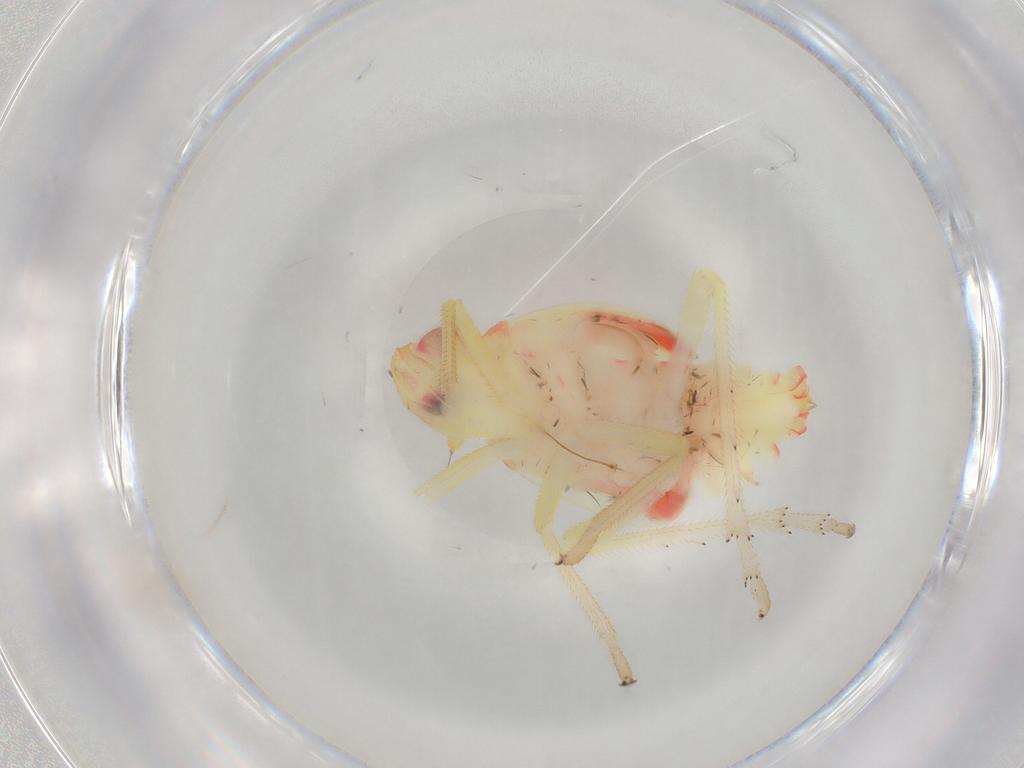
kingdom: Animalia
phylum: Arthropoda
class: Insecta
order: Hemiptera
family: Tropiduchidae
